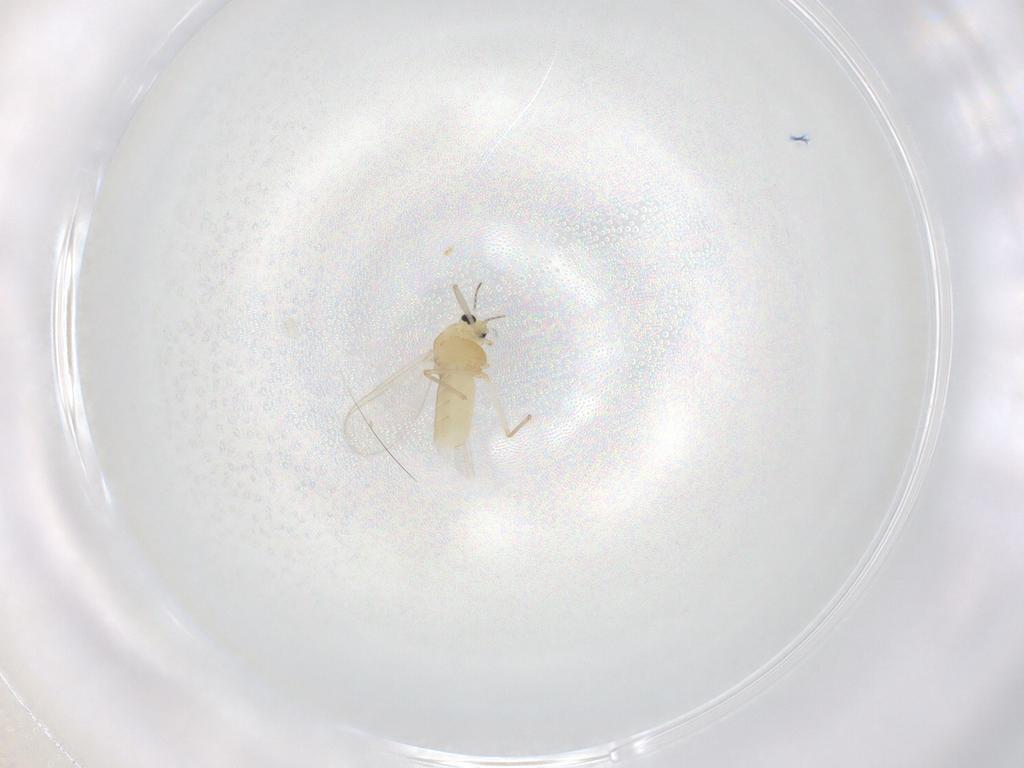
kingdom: Animalia
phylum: Arthropoda
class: Insecta
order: Diptera
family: Chironomidae
